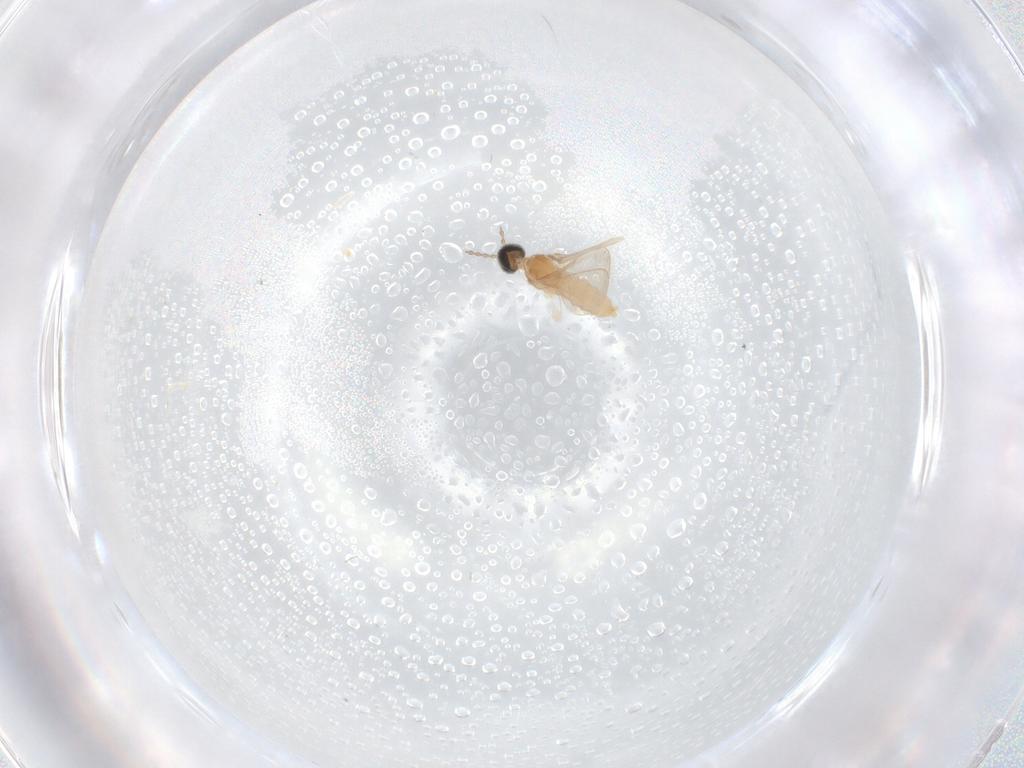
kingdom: Animalia
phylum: Arthropoda
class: Insecta
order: Diptera
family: Cecidomyiidae
